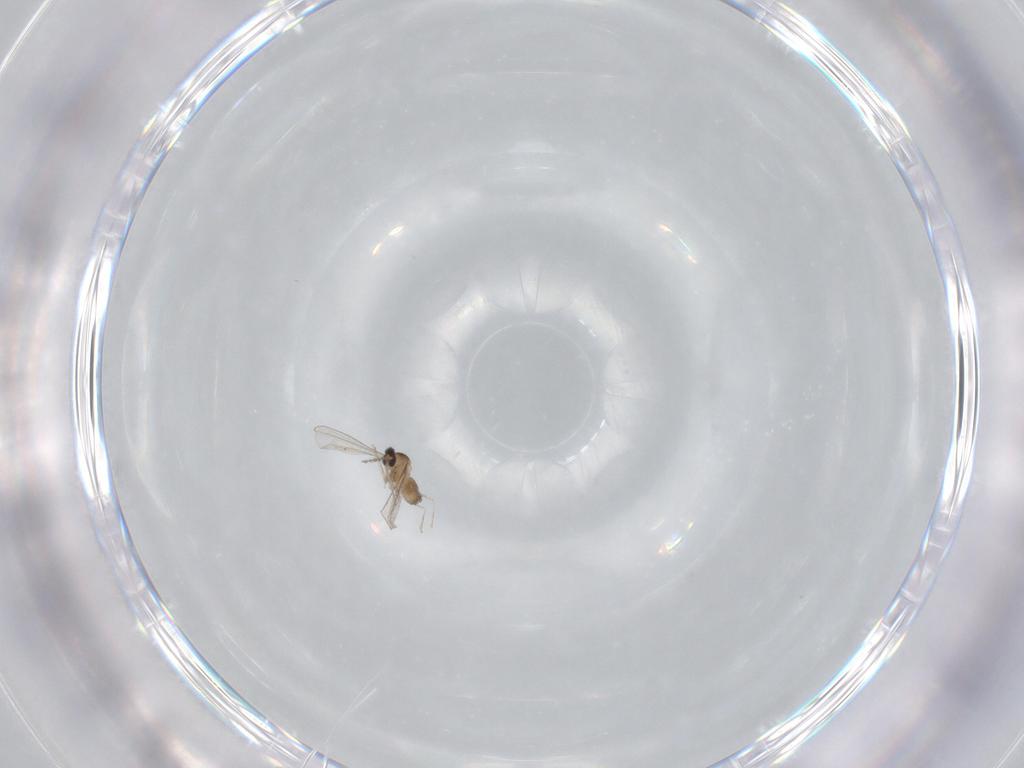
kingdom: Animalia
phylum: Arthropoda
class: Insecta
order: Diptera
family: Cecidomyiidae
